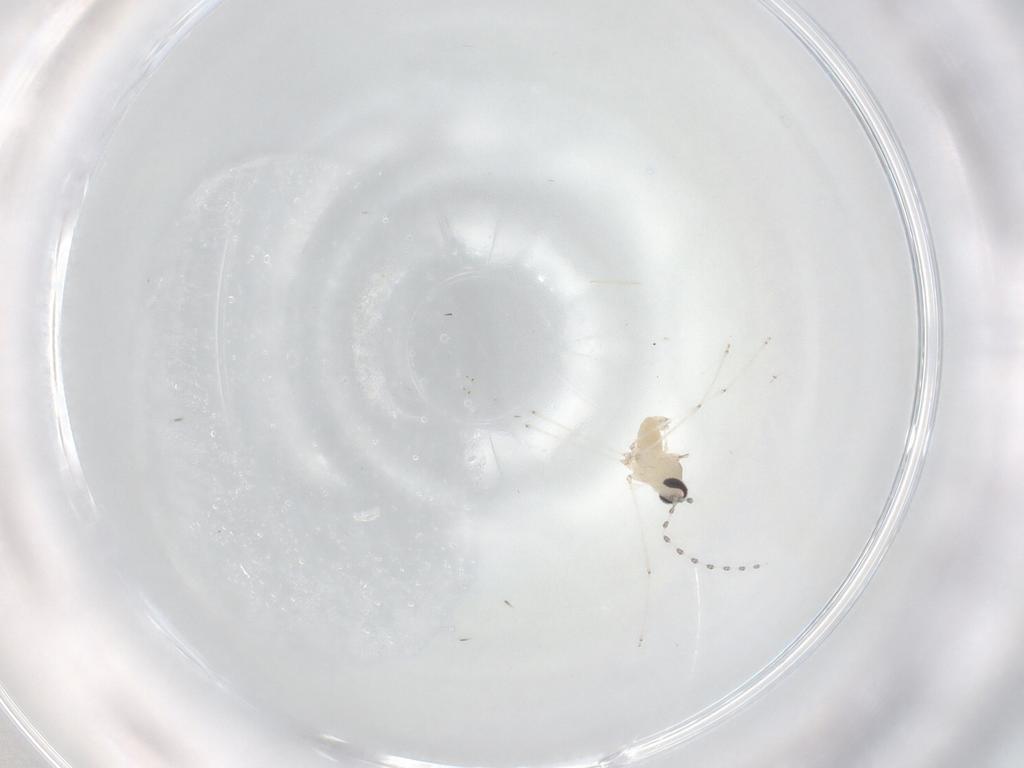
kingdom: Animalia
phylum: Arthropoda
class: Insecta
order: Diptera
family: Cecidomyiidae
